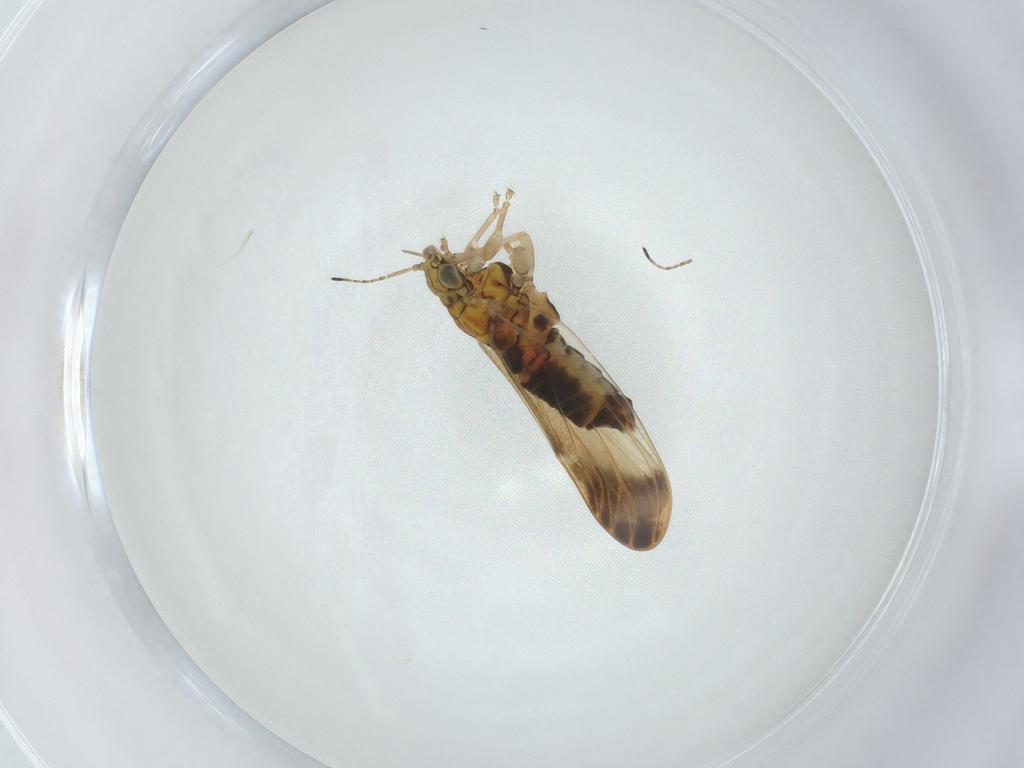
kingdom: Animalia
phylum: Arthropoda
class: Insecta
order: Hemiptera
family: Aphalaridae
